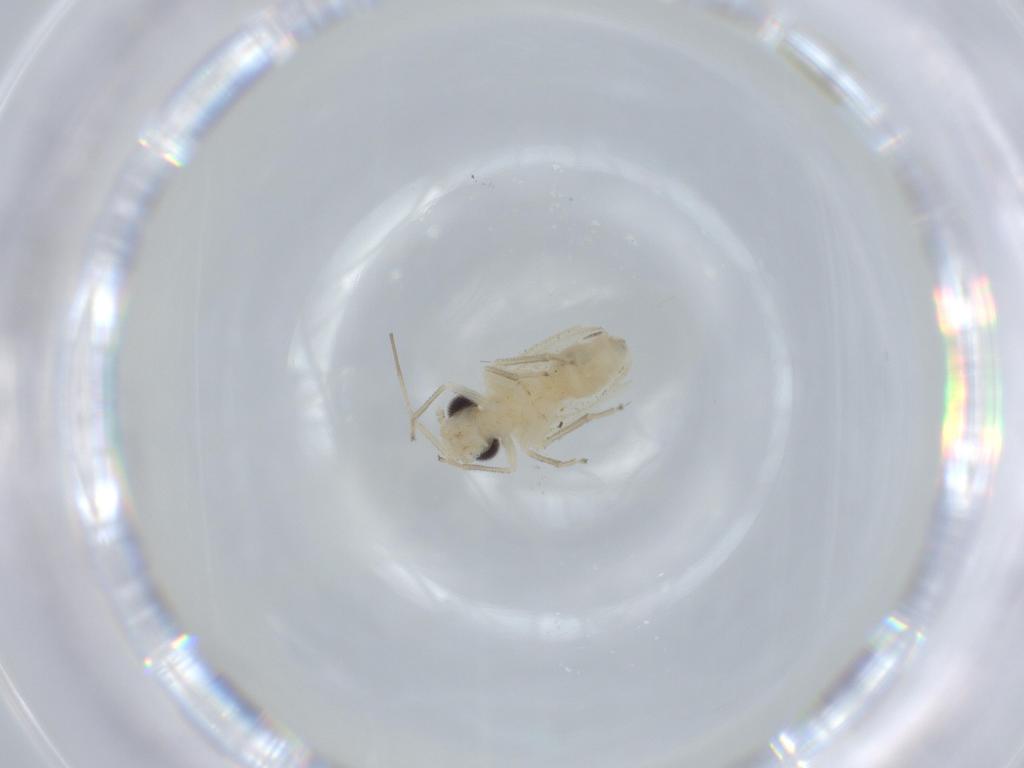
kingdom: Animalia
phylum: Arthropoda
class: Insecta
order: Psocodea
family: Caeciliusidae
